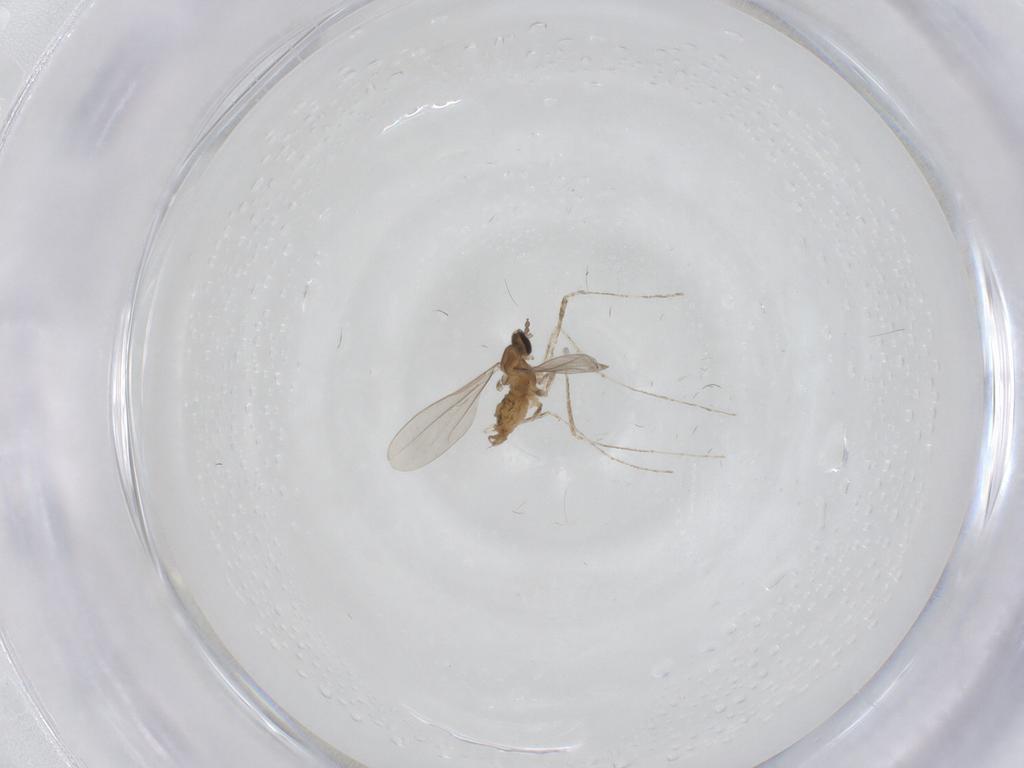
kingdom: Animalia
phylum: Arthropoda
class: Insecta
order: Diptera
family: Cecidomyiidae
